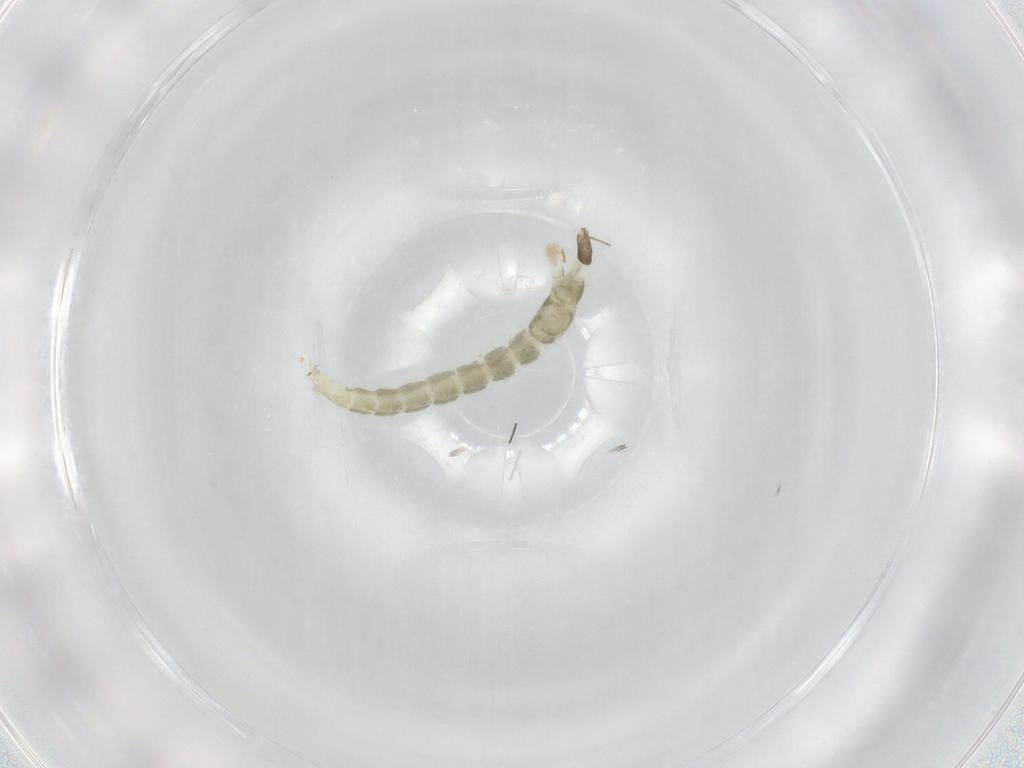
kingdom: Animalia
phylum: Arthropoda
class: Insecta
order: Diptera
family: Chironomidae
